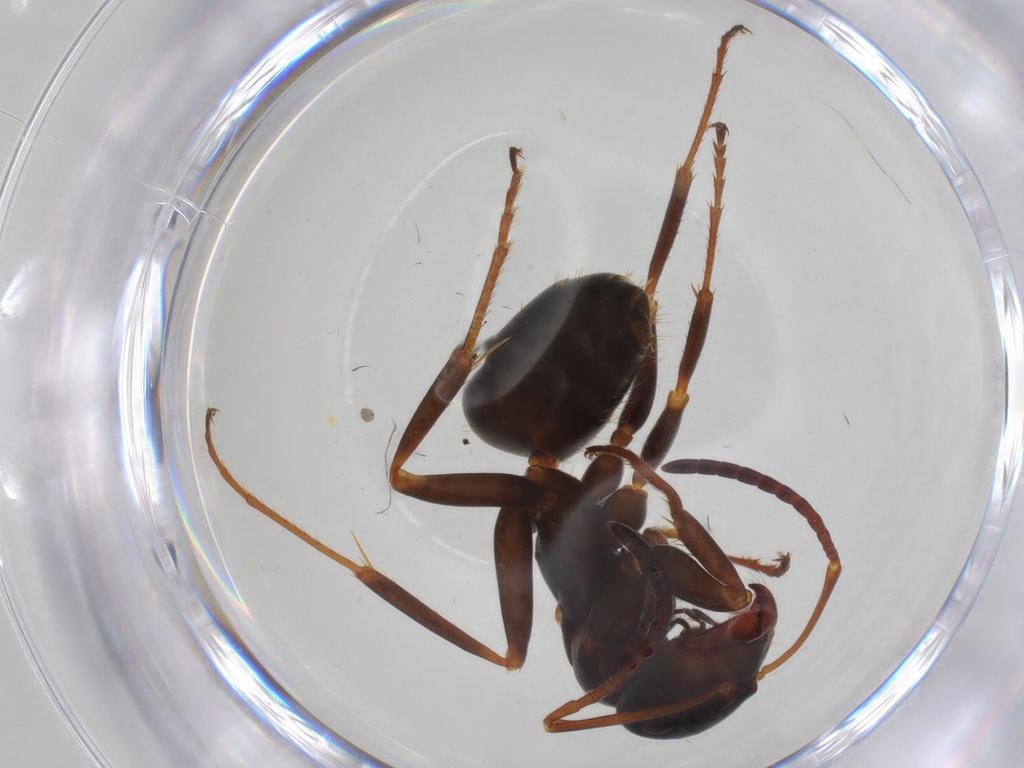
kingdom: Animalia
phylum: Arthropoda
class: Insecta
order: Hymenoptera
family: Formicidae
